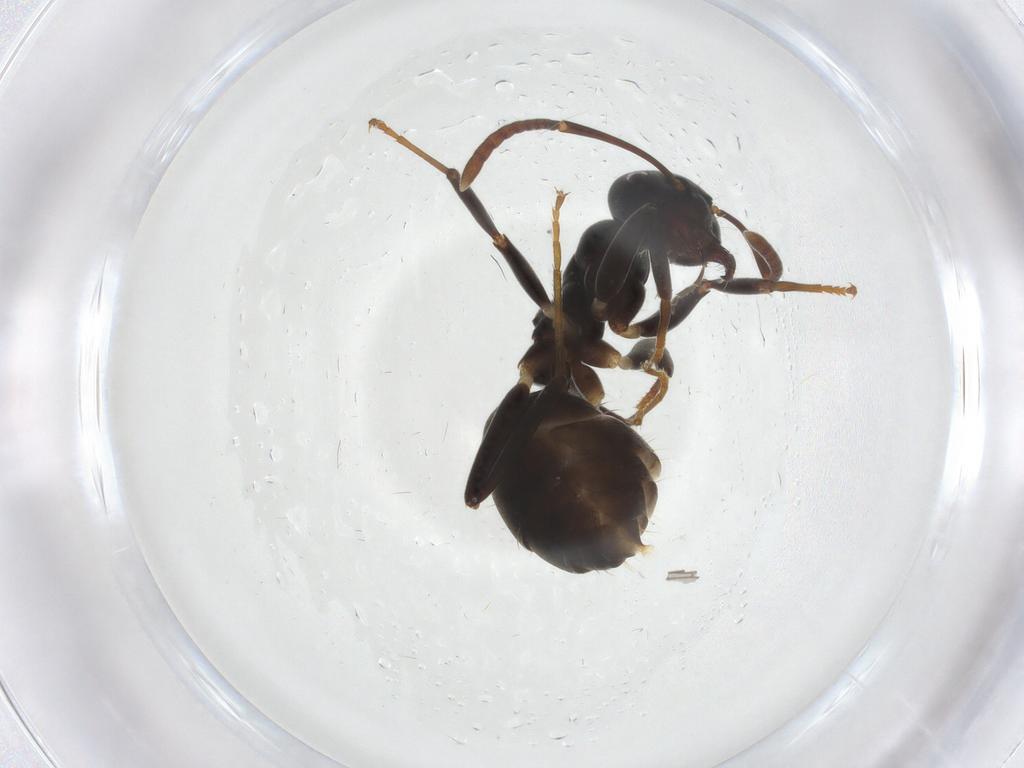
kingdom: Animalia
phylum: Arthropoda
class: Insecta
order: Hymenoptera
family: Formicidae
